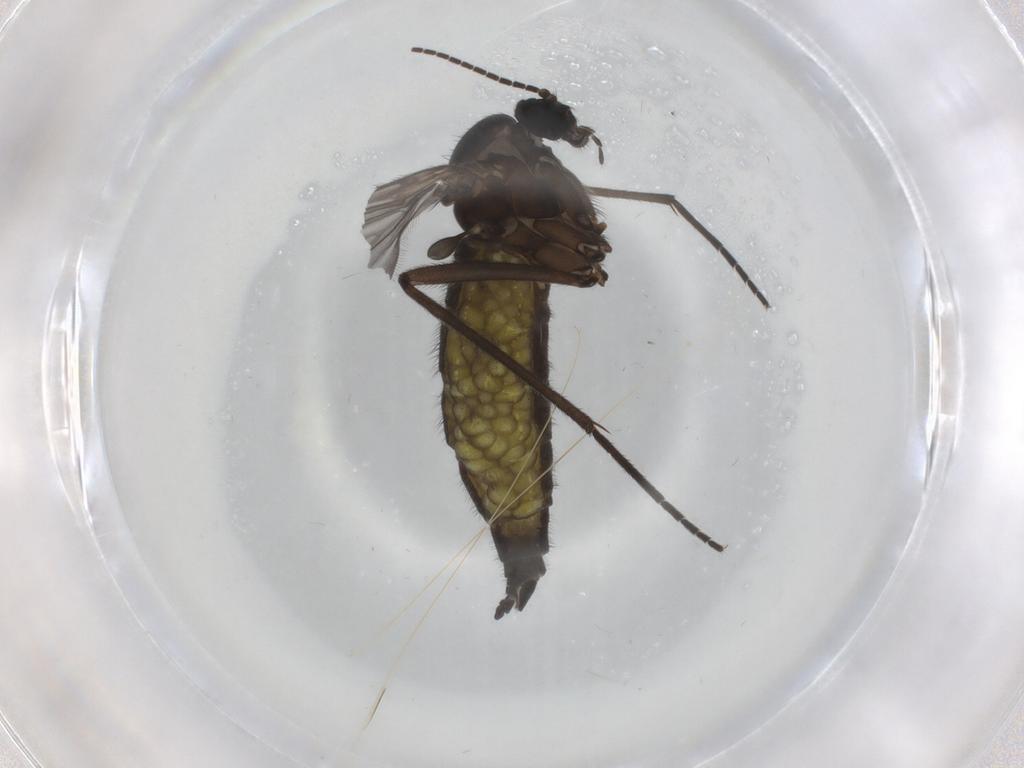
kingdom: Animalia
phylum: Arthropoda
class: Insecta
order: Diptera
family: Sciaridae
